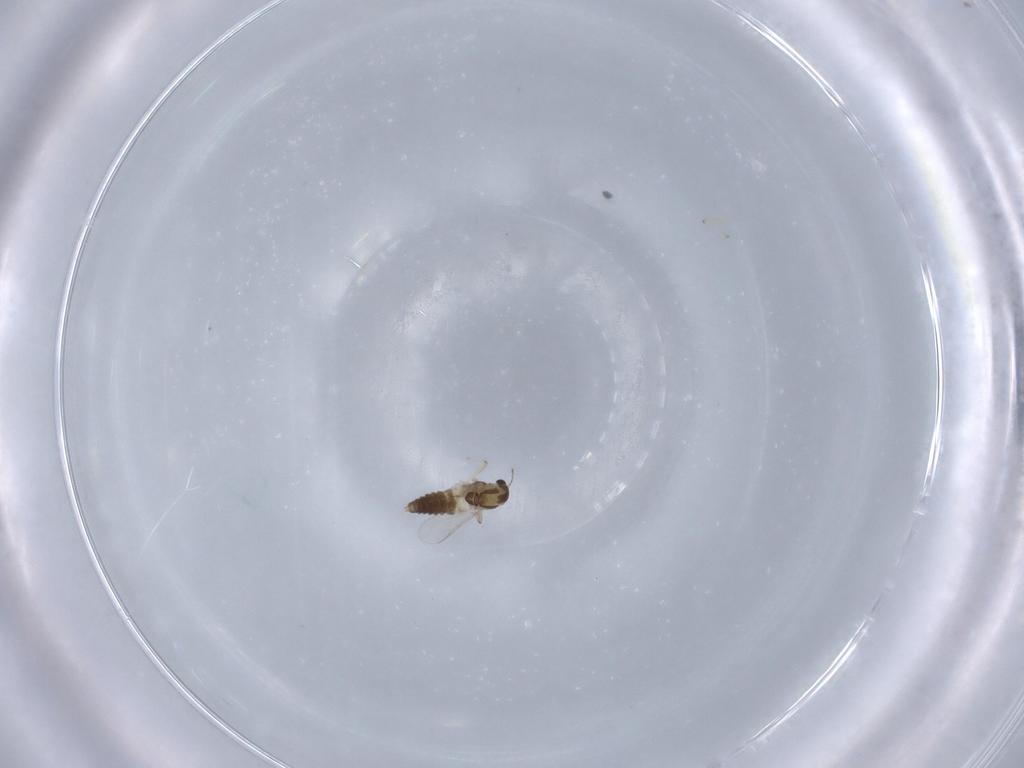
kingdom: Animalia
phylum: Arthropoda
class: Insecta
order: Diptera
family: Chironomidae
